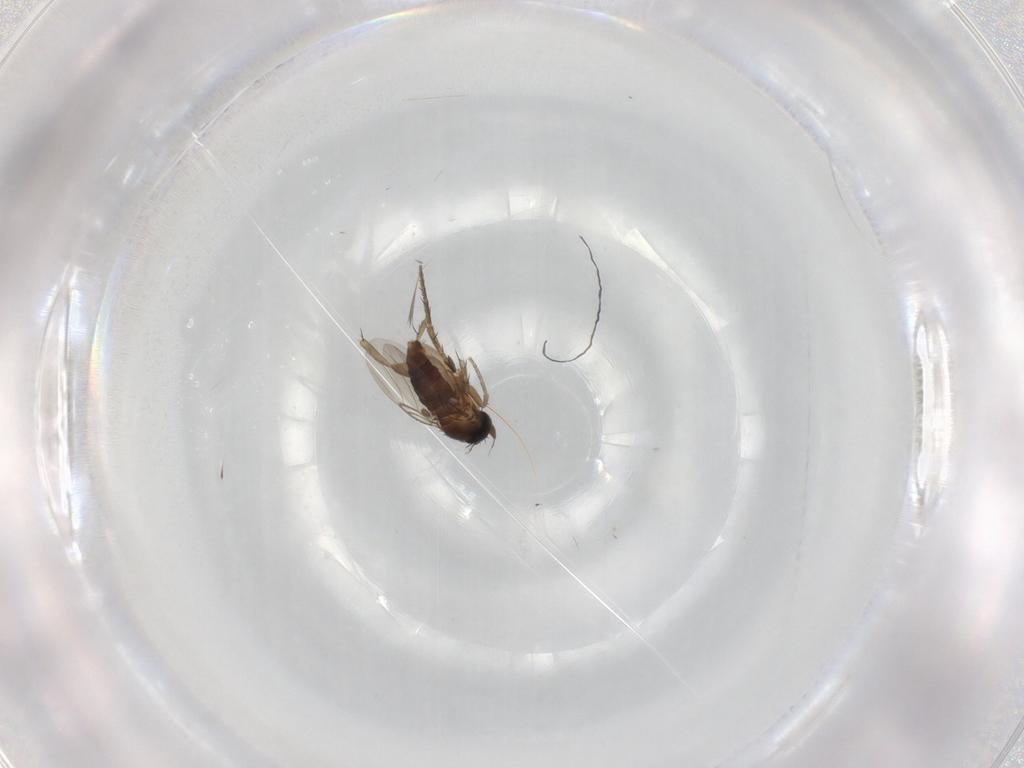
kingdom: Animalia
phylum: Arthropoda
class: Insecta
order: Diptera
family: Phoridae
